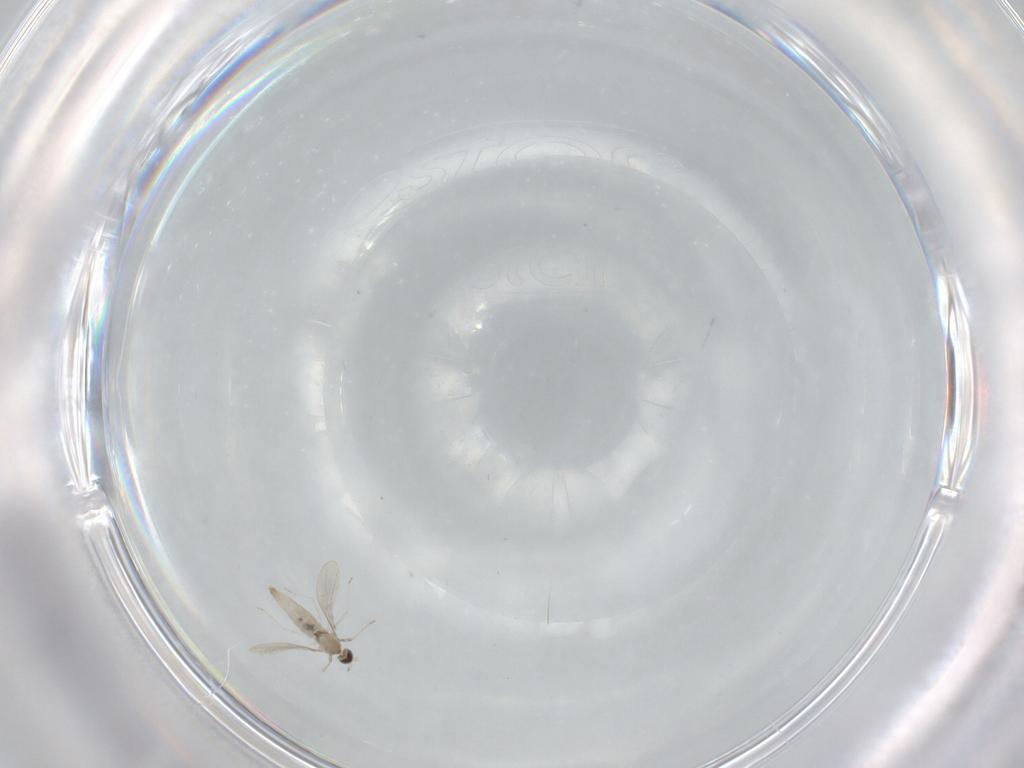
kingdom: Animalia
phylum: Arthropoda
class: Insecta
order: Diptera
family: Cecidomyiidae
